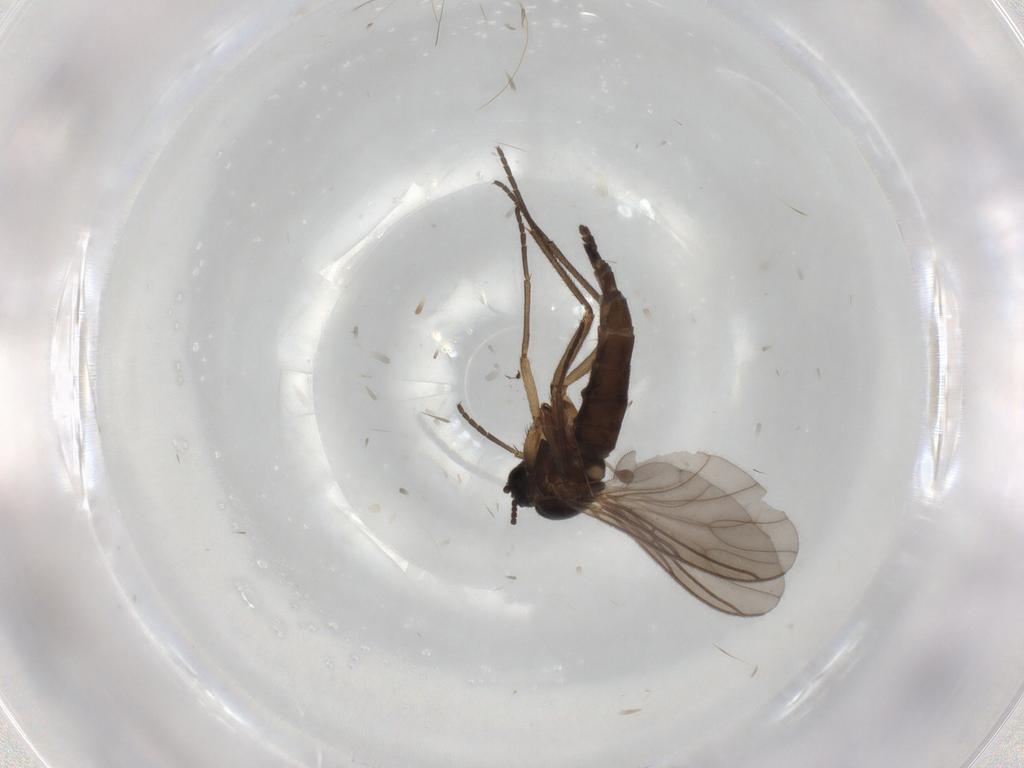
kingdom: Animalia
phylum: Arthropoda
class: Insecta
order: Diptera
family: Sciaridae
